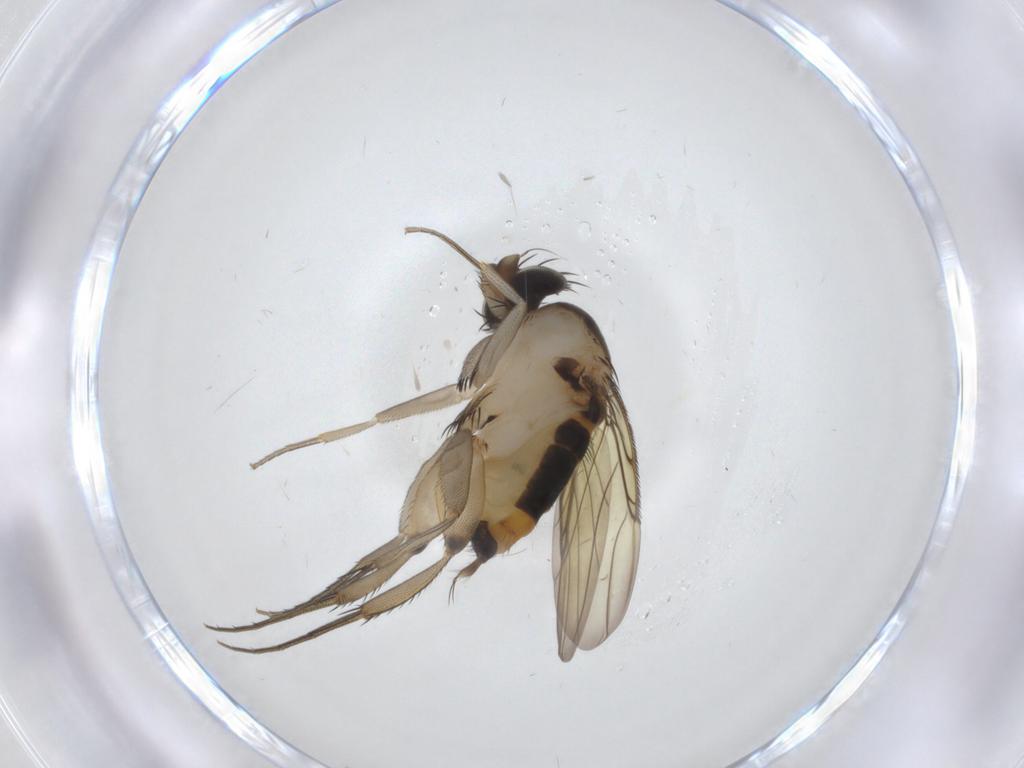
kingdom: Animalia
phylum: Arthropoda
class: Insecta
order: Diptera
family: Phoridae
